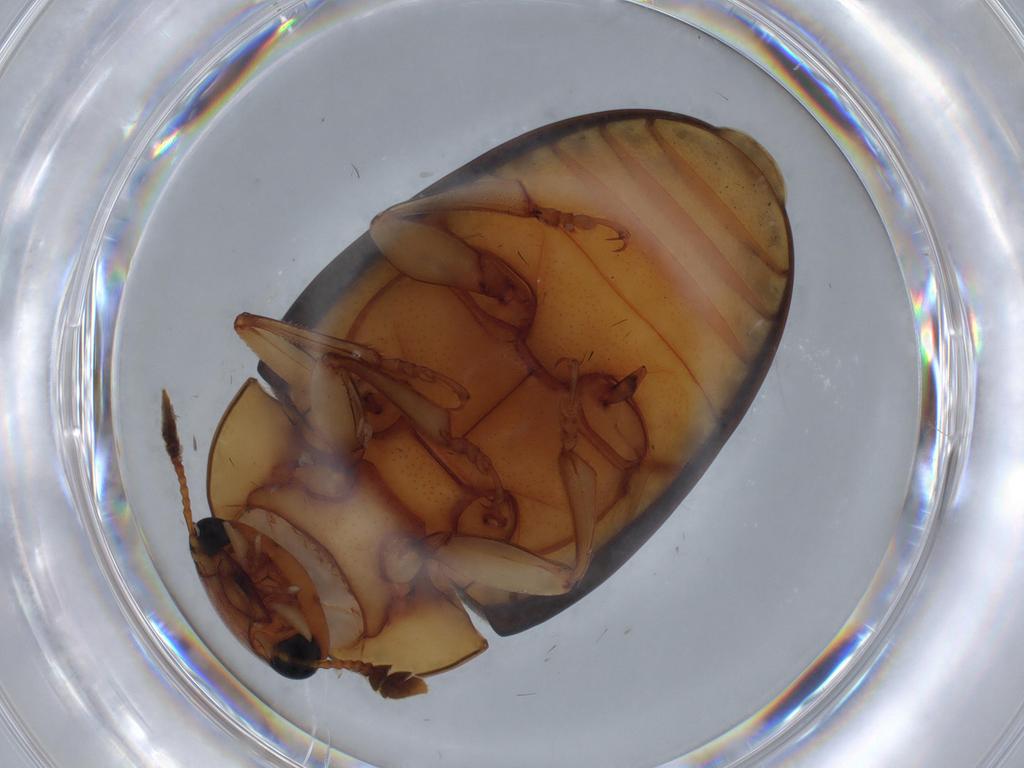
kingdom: Animalia
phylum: Arthropoda
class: Insecta
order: Coleoptera
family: Erotylidae
